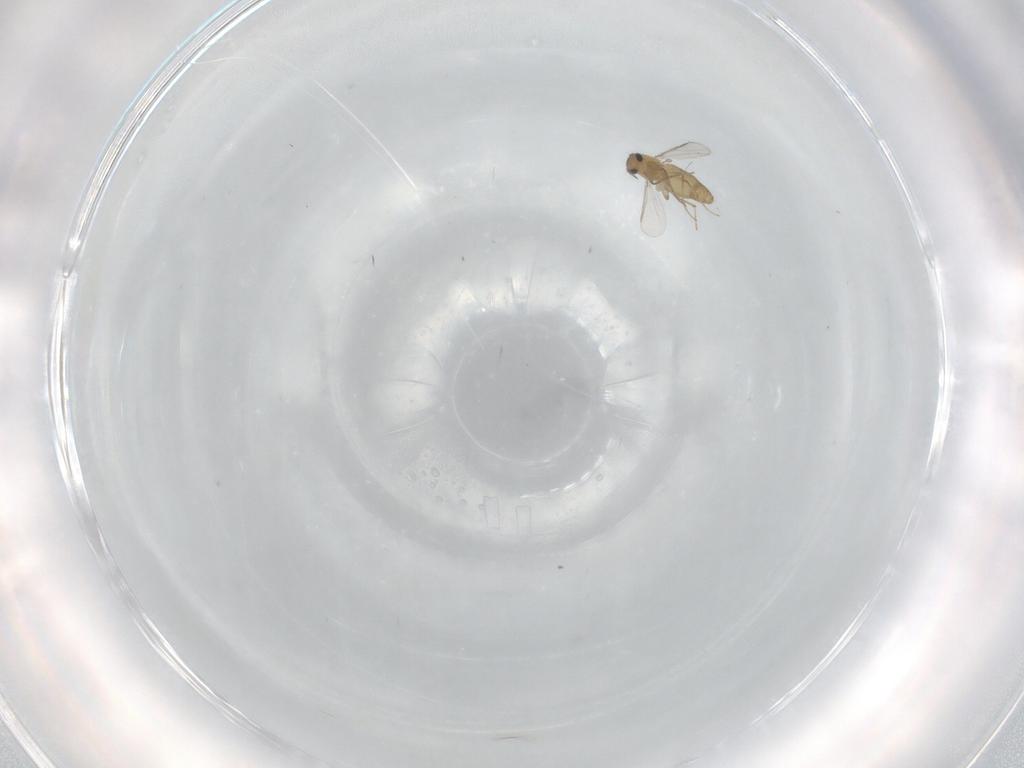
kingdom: Animalia
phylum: Arthropoda
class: Insecta
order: Diptera
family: Chironomidae
